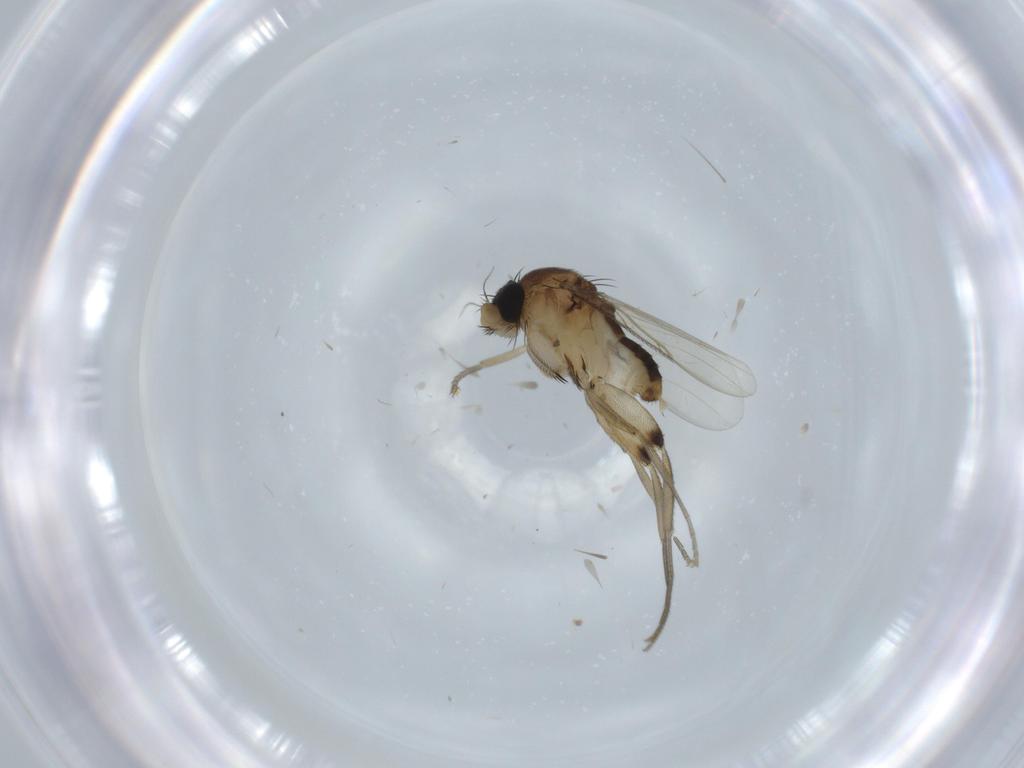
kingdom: Animalia
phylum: Arthropoda
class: Insecta
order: Diptera
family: Phoridae
